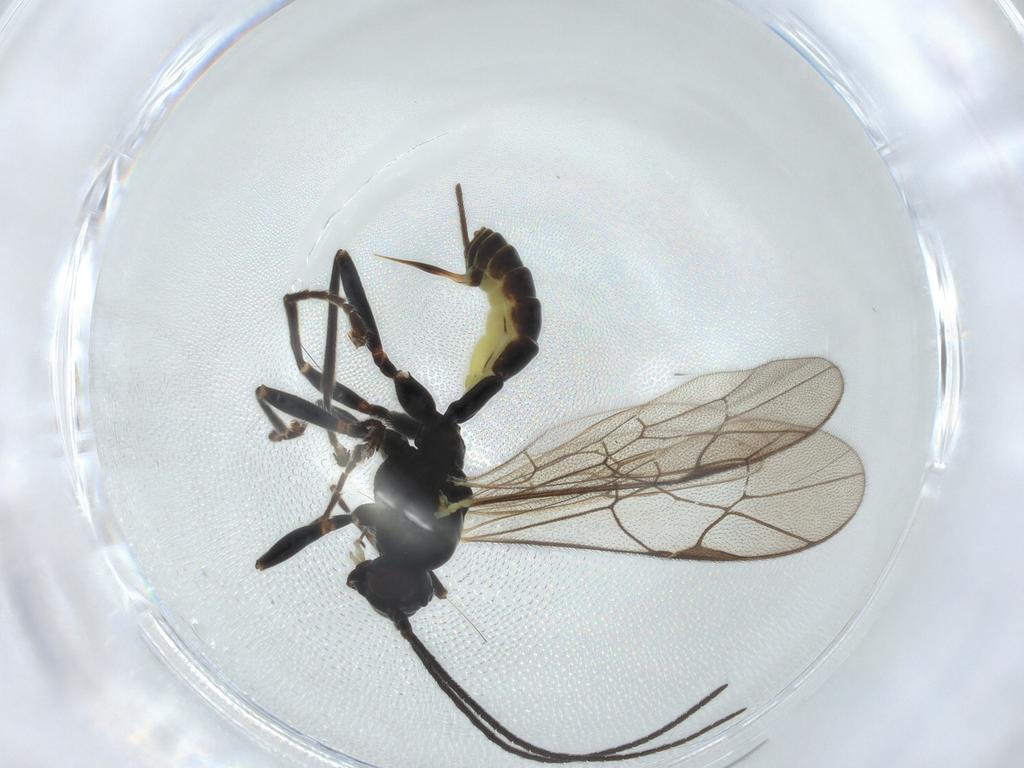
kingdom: Animalia
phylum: Arthropoda
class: Insecta
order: Hymenoptera
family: Ichneumonidae
